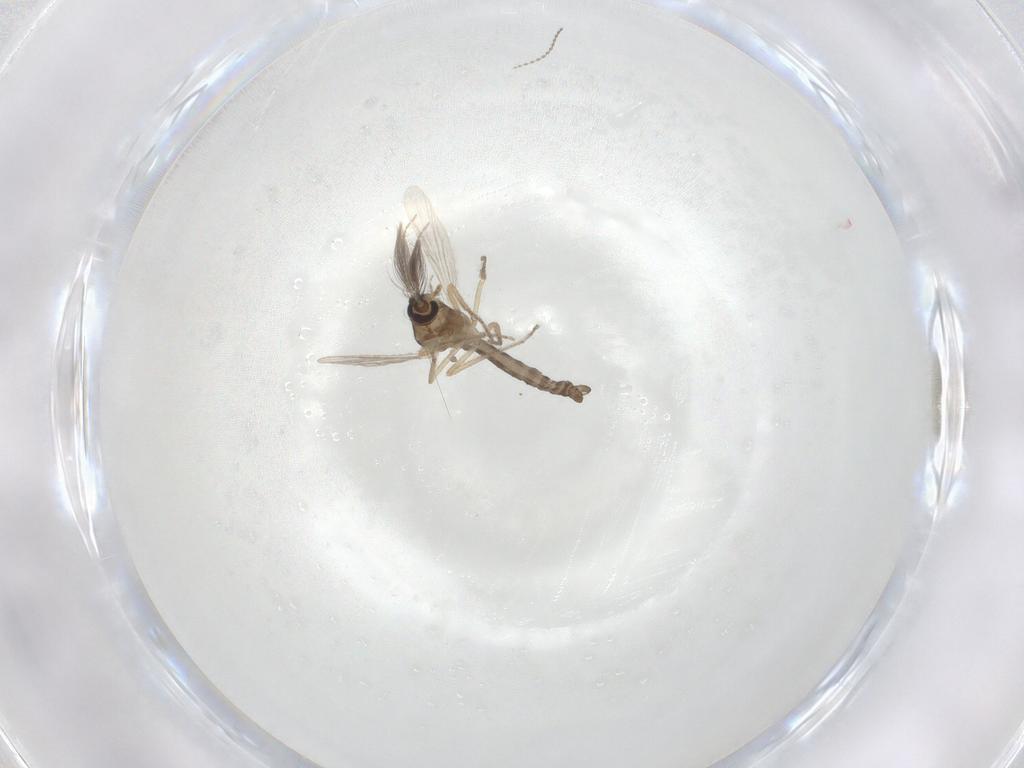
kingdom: Animalia
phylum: Arthropoda
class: Insecta
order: Diptera
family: Ceratopogonidae
